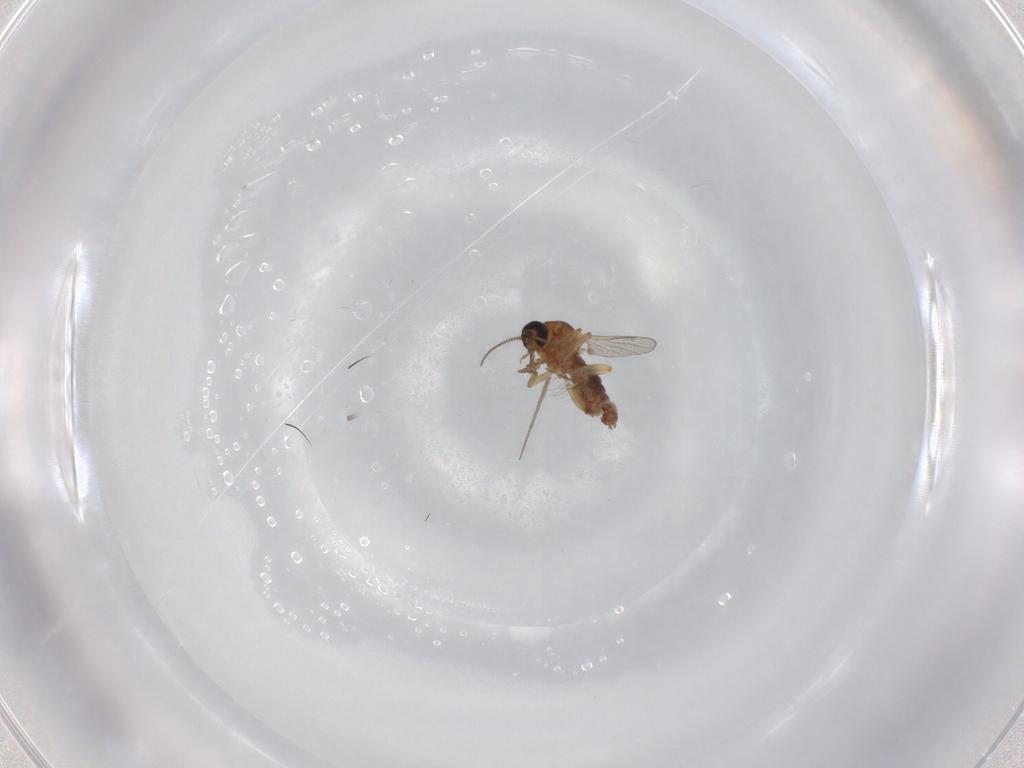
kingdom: Animalia
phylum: Arthropoda
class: Insecta
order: Diptera
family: Ceratopogonidae
